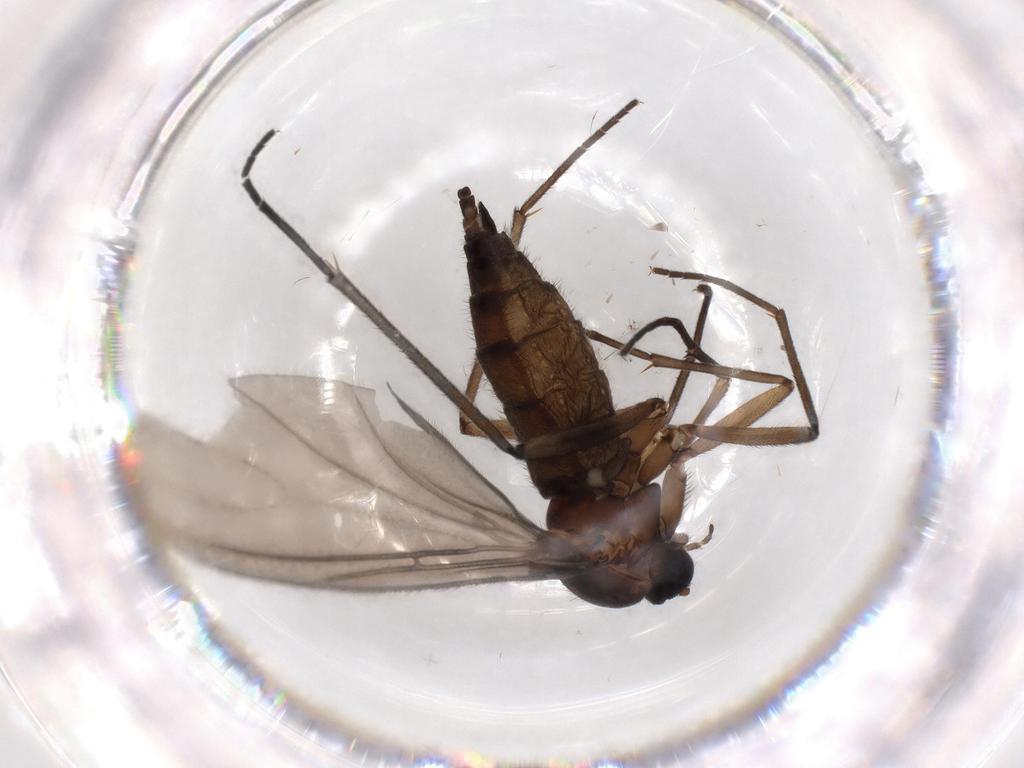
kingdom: Animalia
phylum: Arthropoda
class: Insecta
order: Diptera
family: Sciaridae
